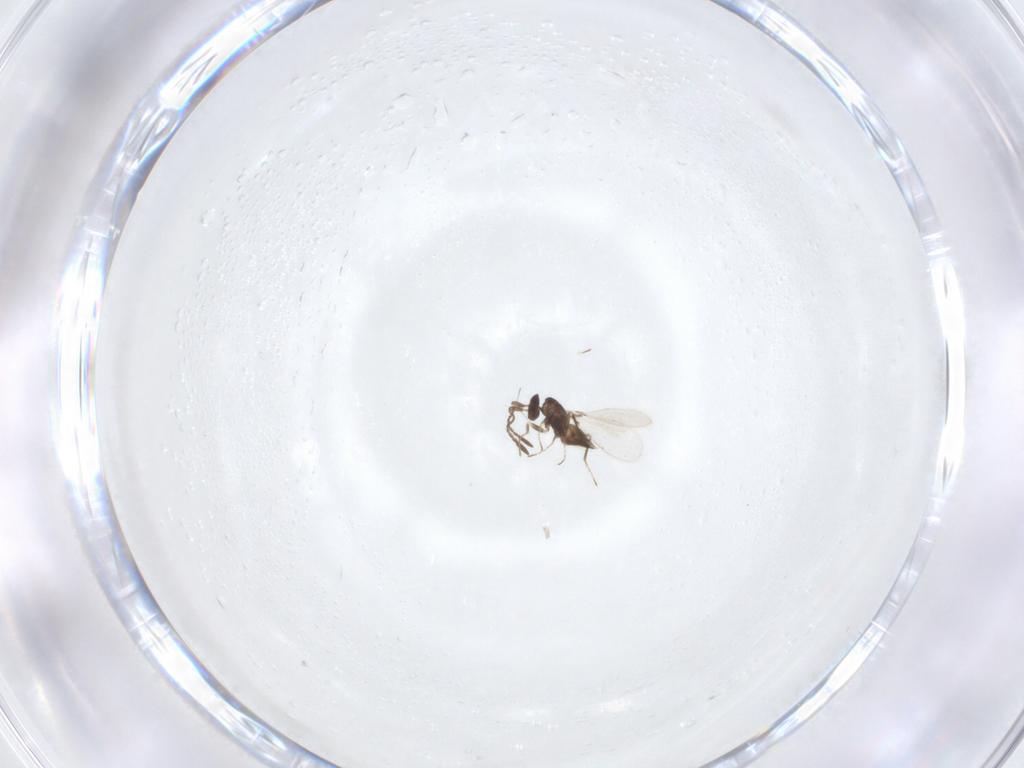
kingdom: Animalia
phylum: Arthropoda
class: Insecta
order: Hymenoptera
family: Mymaridae
